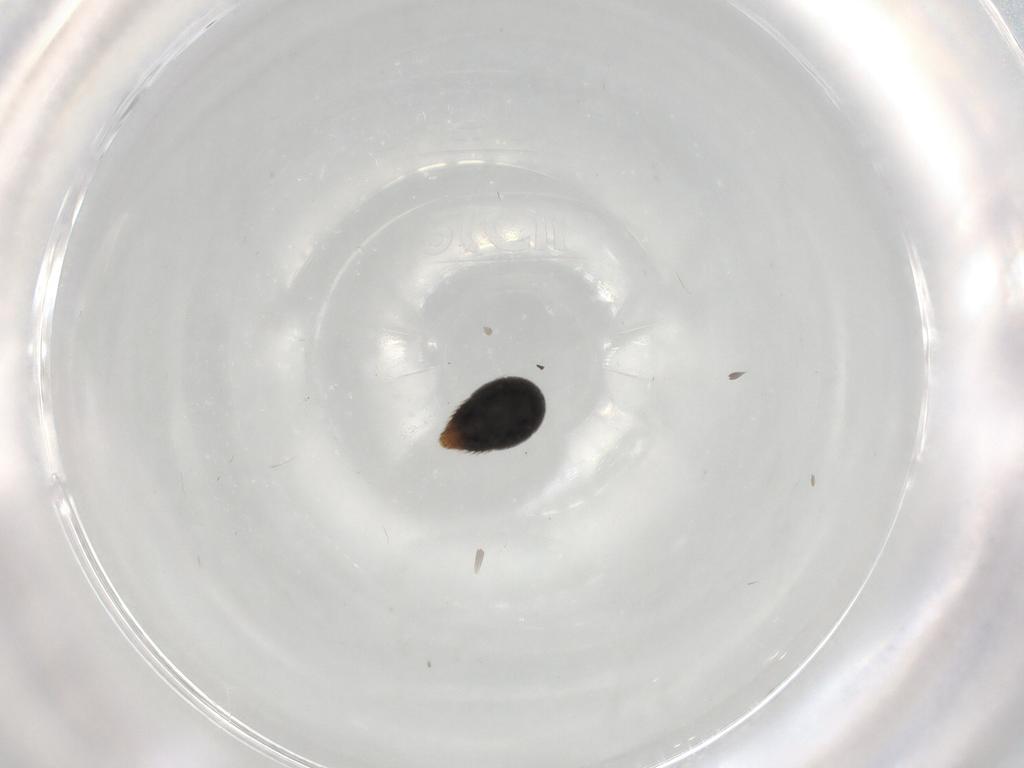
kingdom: Animalia
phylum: Arthropoda
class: Insecta
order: Coleoptera
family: Staphylinidae
